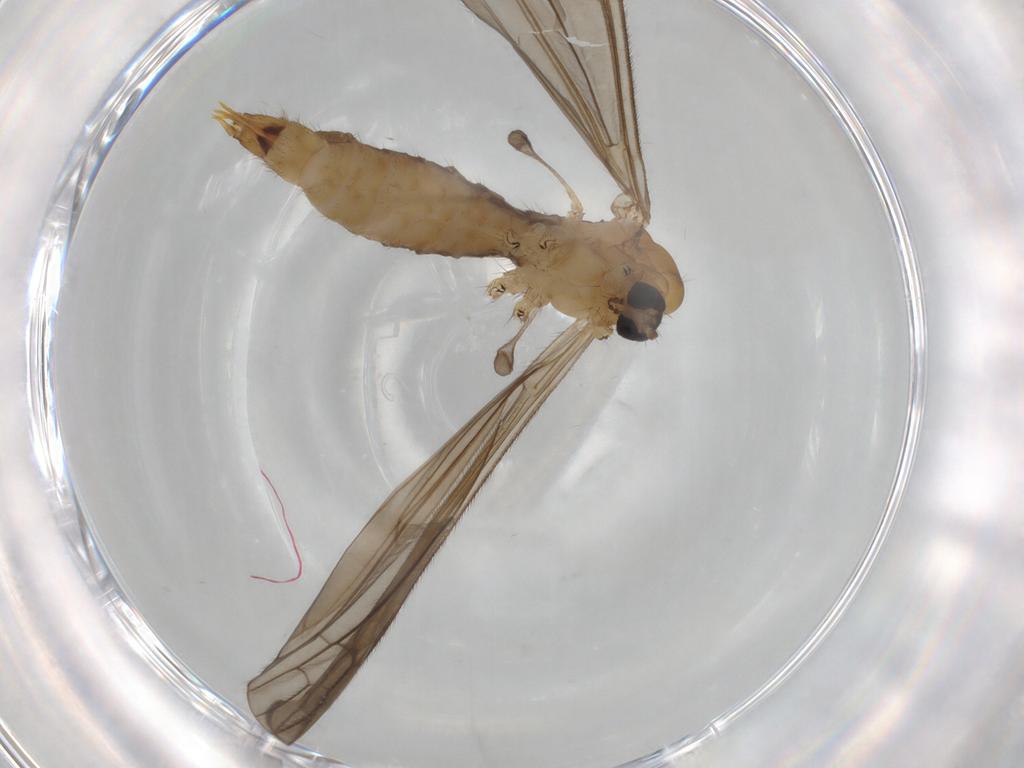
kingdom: Animalia
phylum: Arthropoda
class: Insecta
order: Diptera
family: Limoniidae
